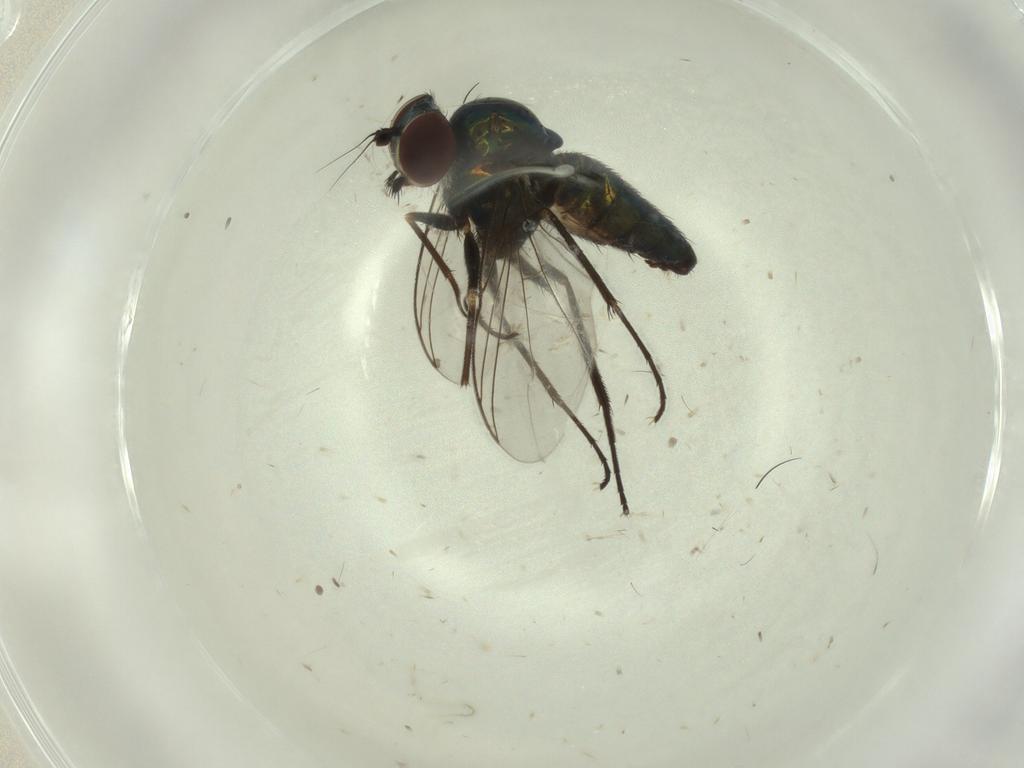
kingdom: Animalia
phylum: Arthropoda
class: Insecta
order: Diptera
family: Dolichopodidae
